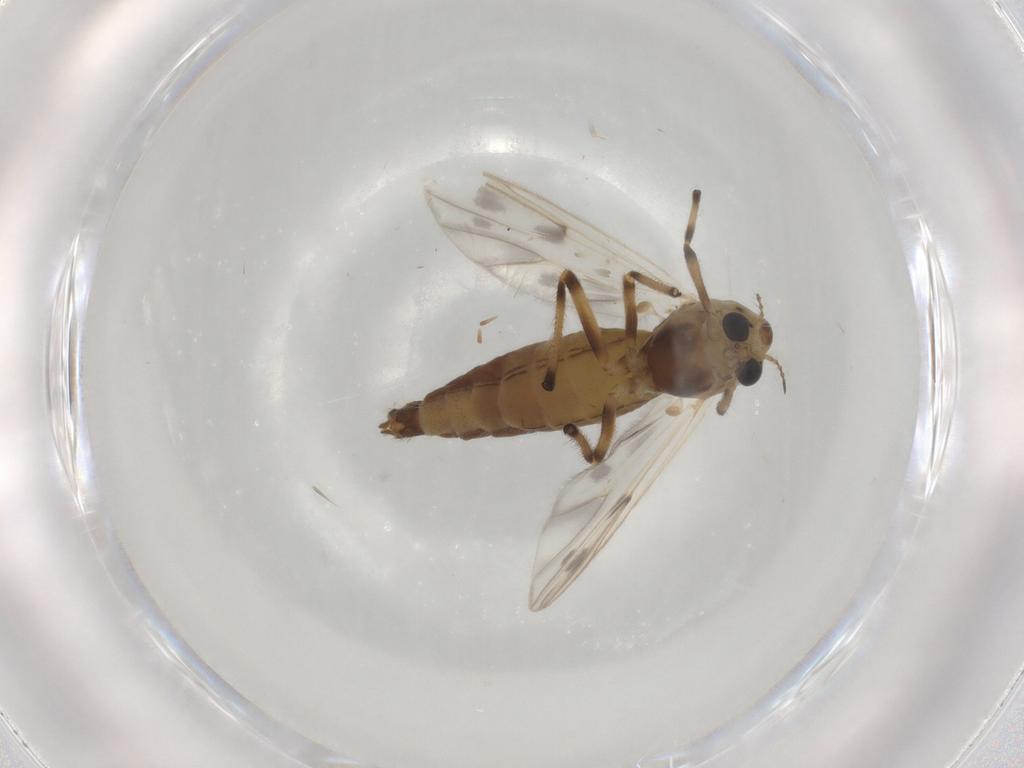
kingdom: Animalia
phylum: Arthropoda
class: Insecta
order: Diptera
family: Chironomidae
